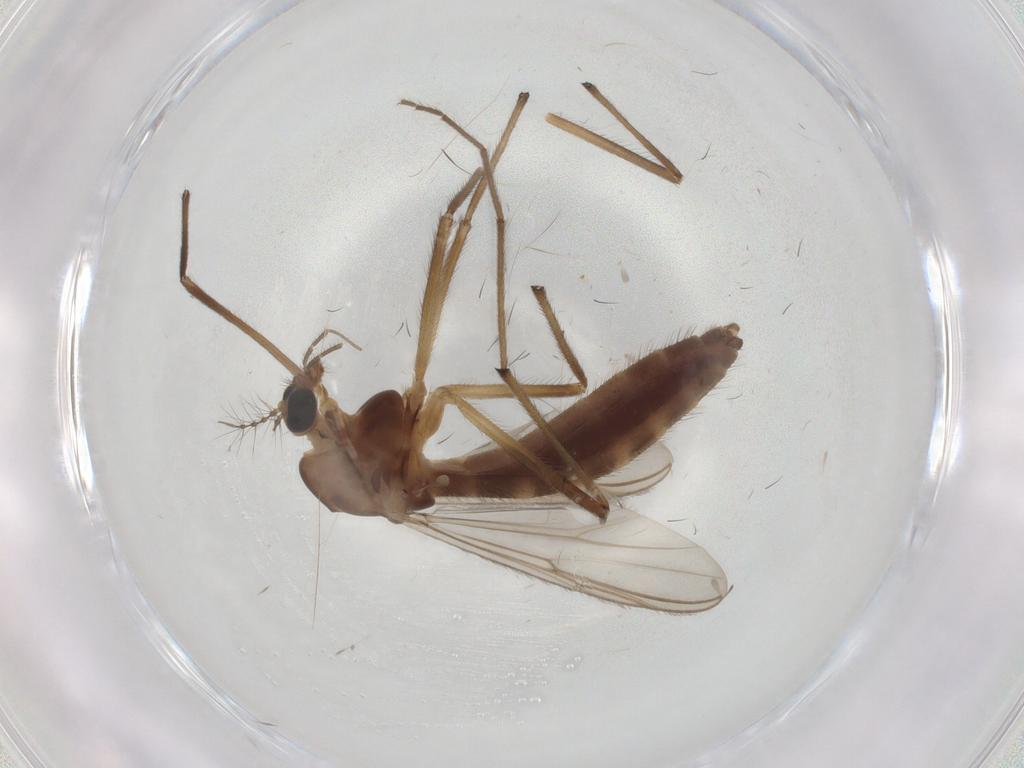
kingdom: Animalia
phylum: Arthropoda
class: Insecta
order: Diptera
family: Chironomidae
